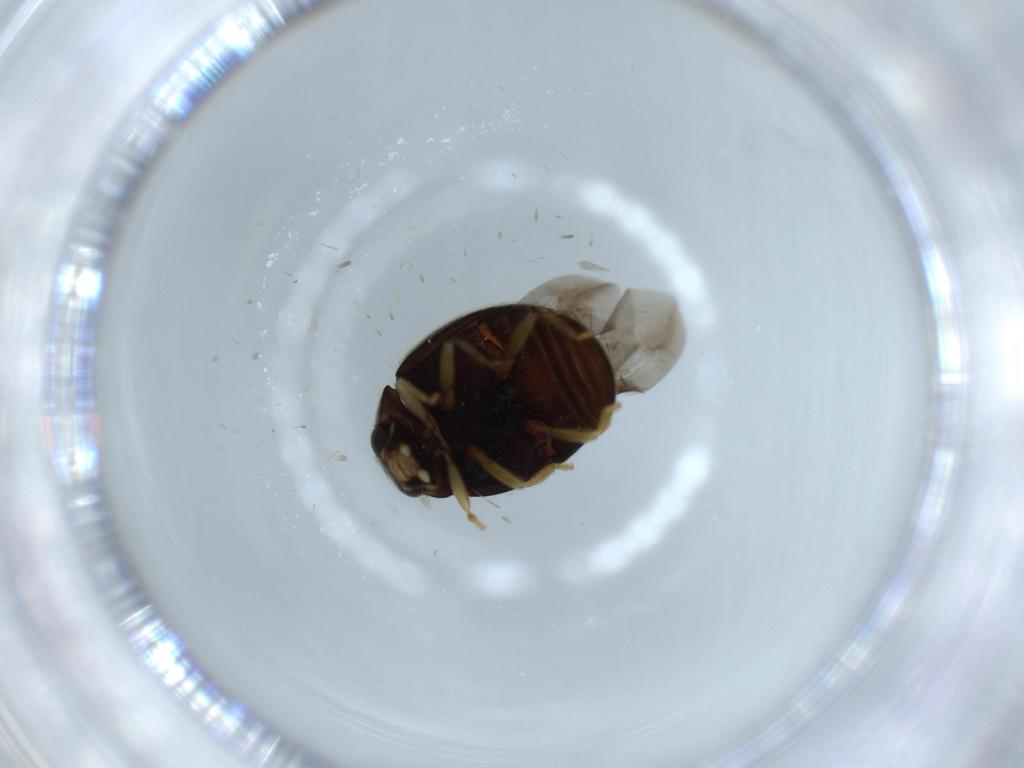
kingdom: Animalia
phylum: Arthropoda
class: Insecta
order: Coleoptera
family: Coccinellidae
